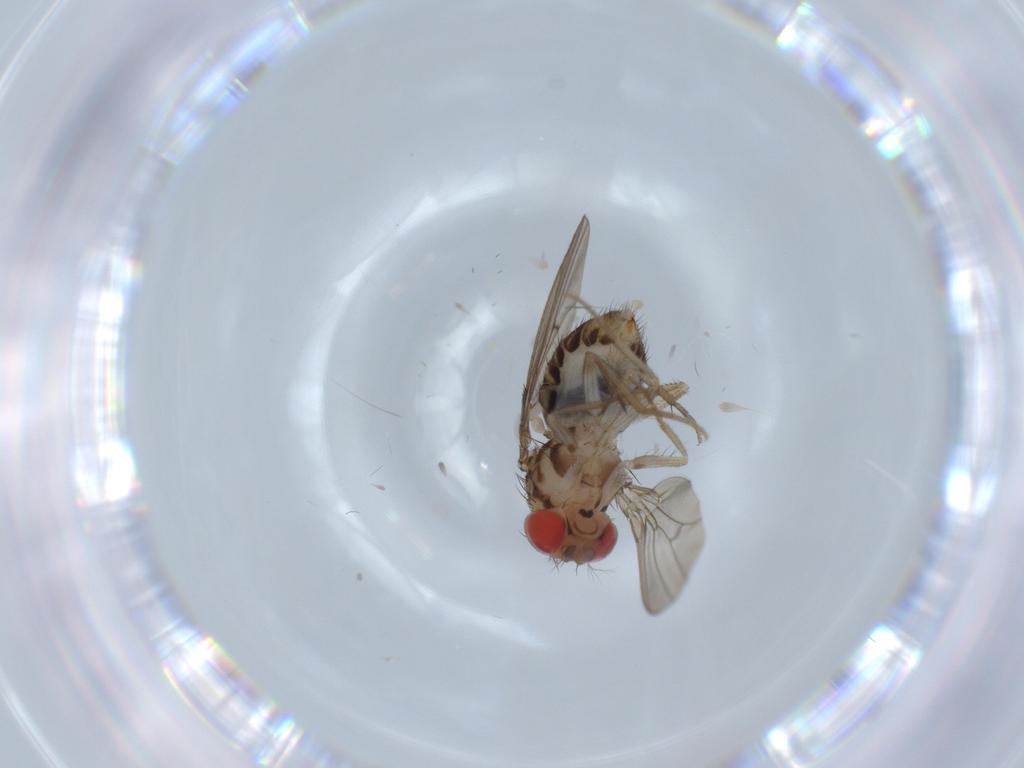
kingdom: Animalia
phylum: Arthropoda
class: Insecta
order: Diptera
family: Drosophilidae
